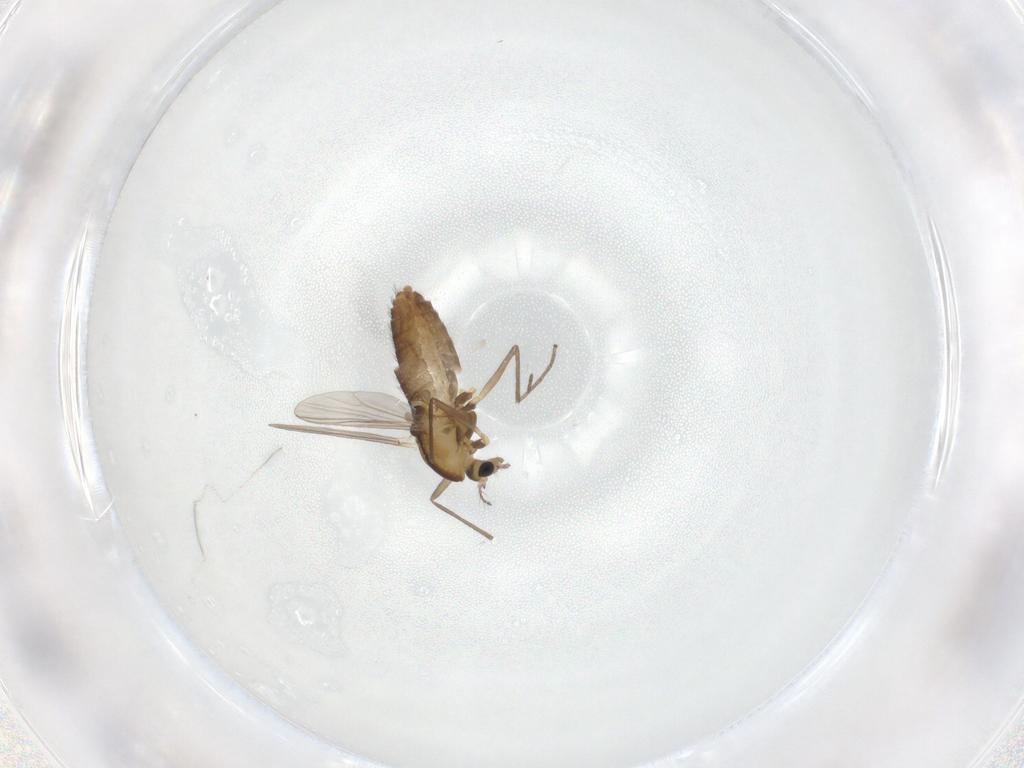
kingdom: Animalia
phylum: Arthropoda
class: Insecta
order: Diptera
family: Chironomidae
